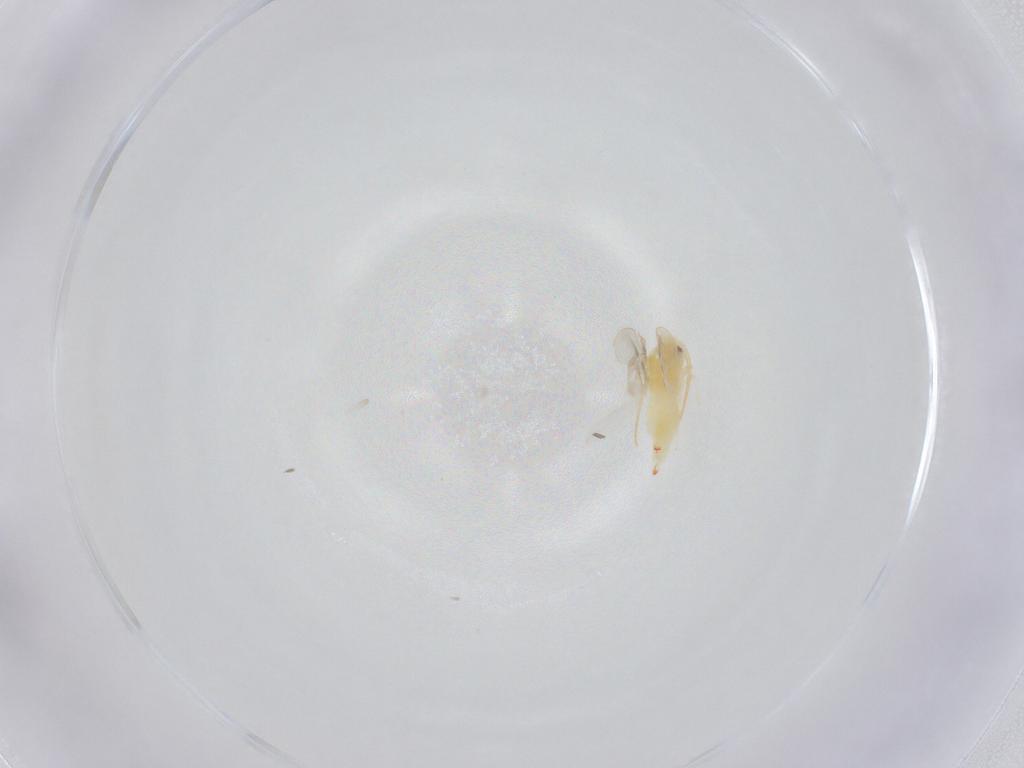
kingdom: Animalia
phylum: Arthropoda
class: Insecta
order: Hemiptera
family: Aleyrodidae
